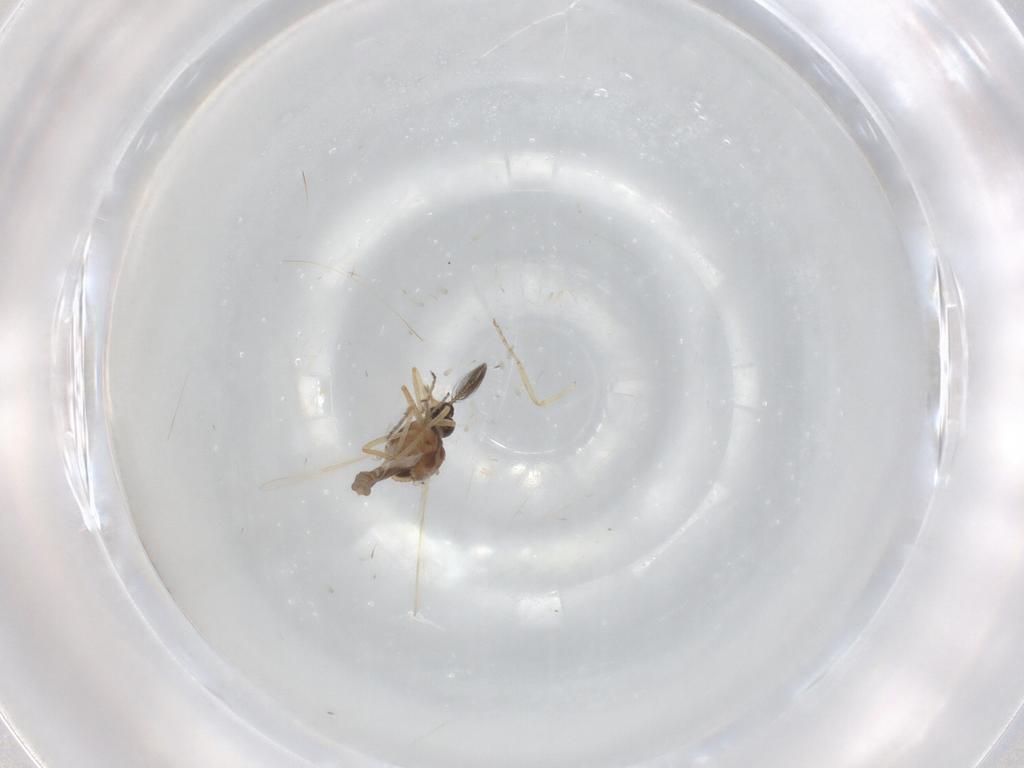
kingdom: Animalia
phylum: Arthropoda
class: Insecta
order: Diptera
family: Ceratopogonidae
